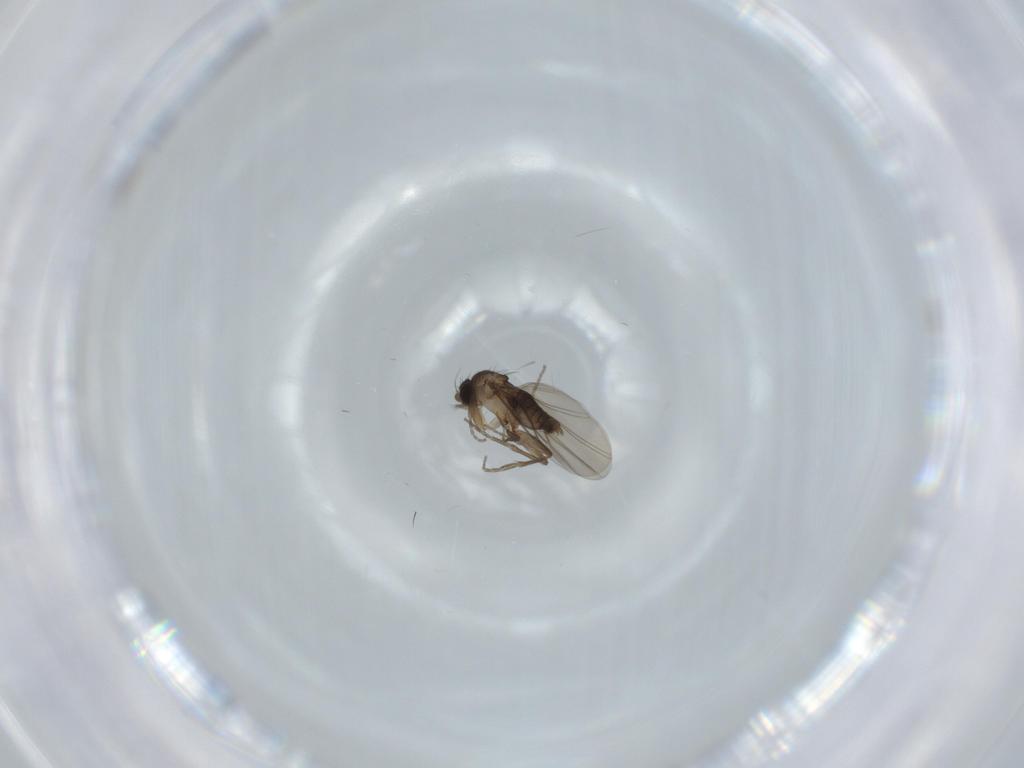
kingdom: Animalia
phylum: Arthropoda
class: Insecta
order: Diptera
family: Phoridae
